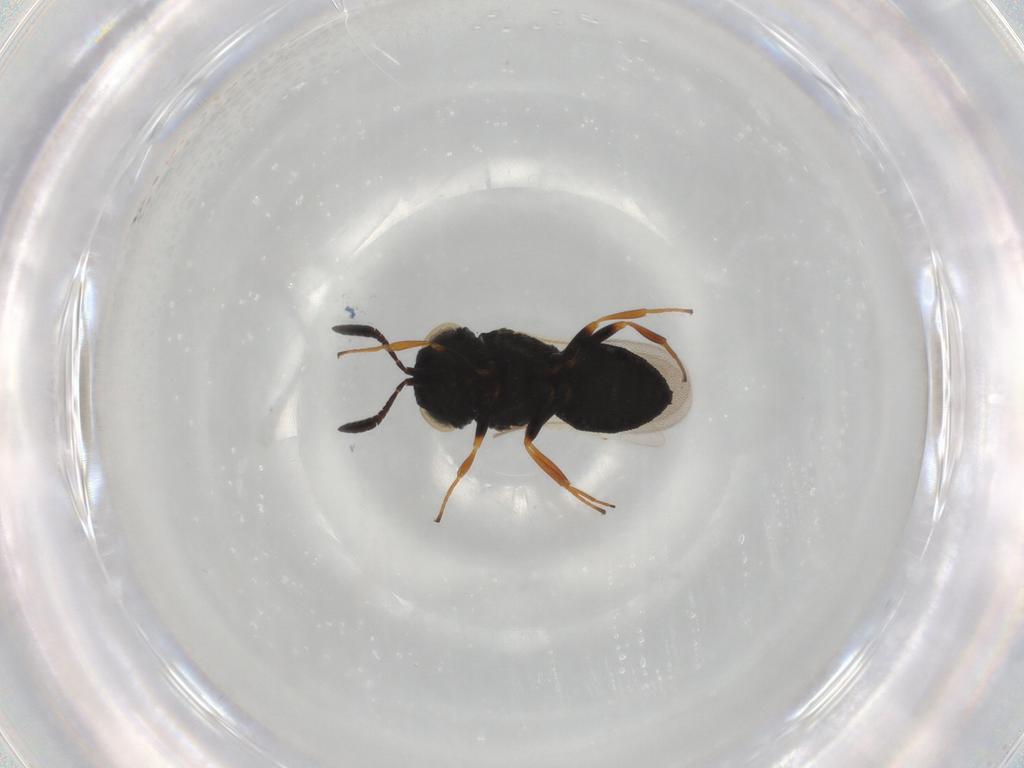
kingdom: Animalia
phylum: Arthropoda
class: Insecta
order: Hymenoptera
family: Scelionidae
